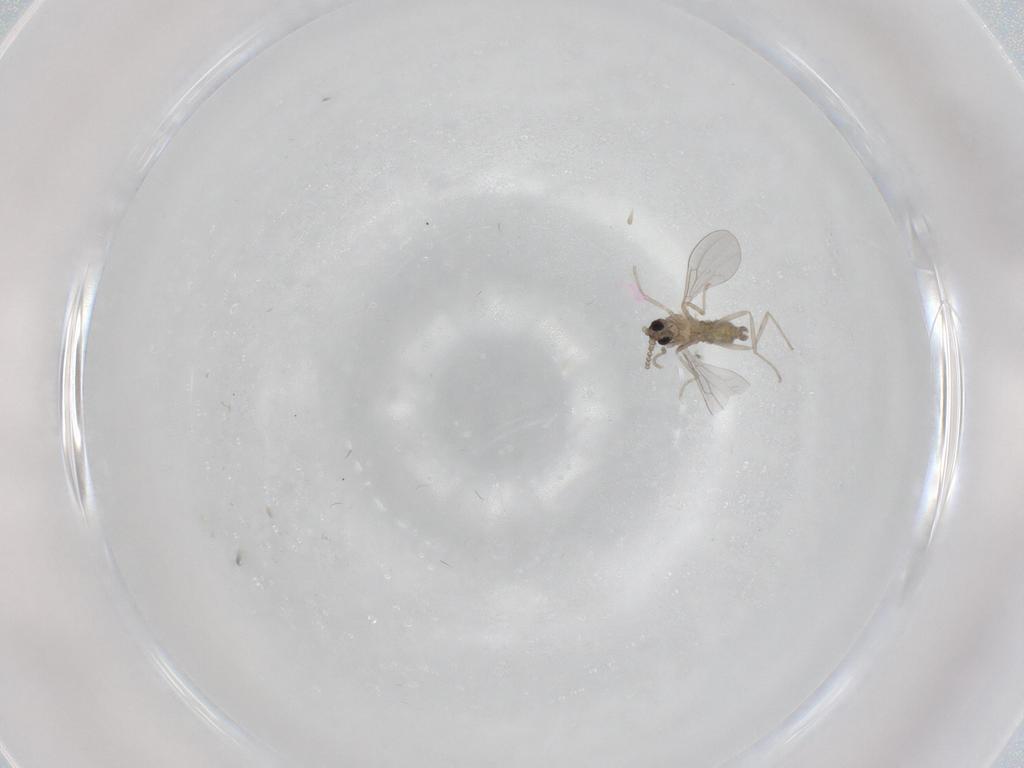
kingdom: Animalia
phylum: Arthropoda
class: Insecta
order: Diptera
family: Cecidomyiidae
